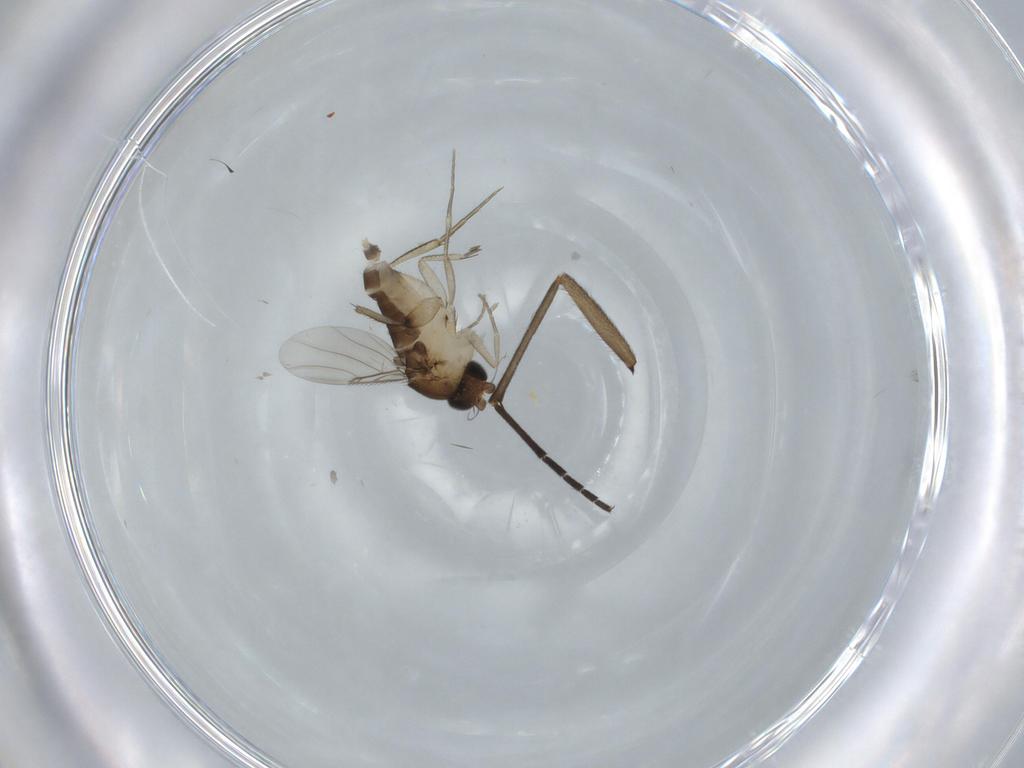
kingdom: Animalia
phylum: Arthropoda
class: Insecta
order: Diptera
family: Phoridae
